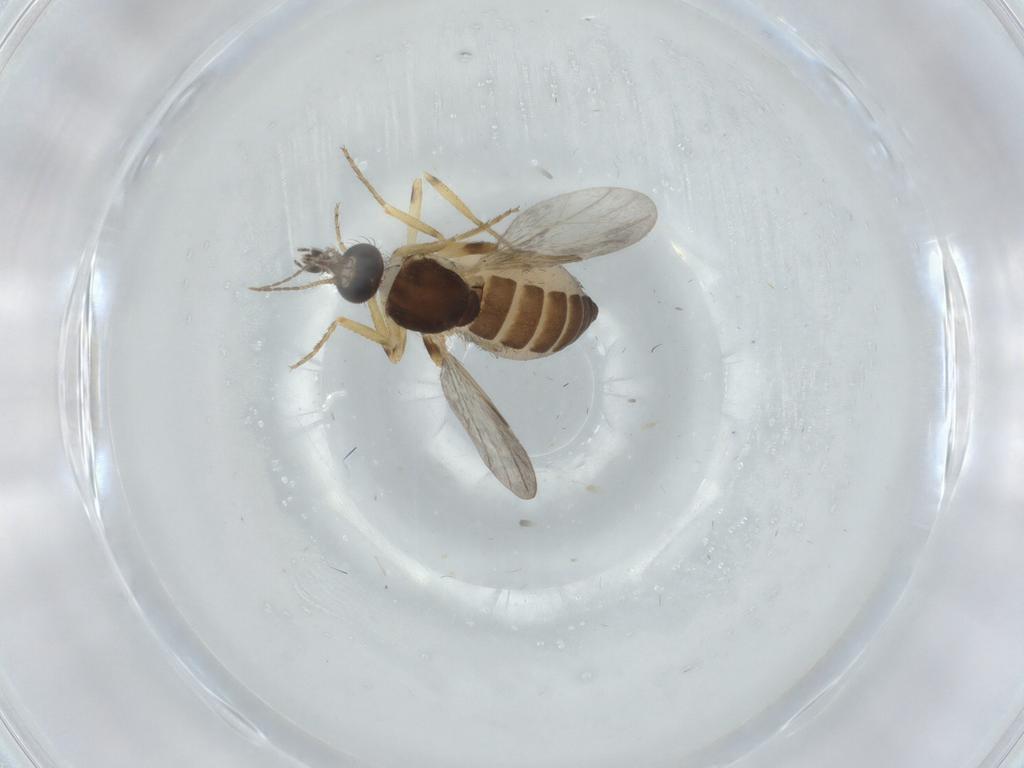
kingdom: Animalia
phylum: Arthropoda
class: Insecta
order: Diptera
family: Ceratopogonidae
